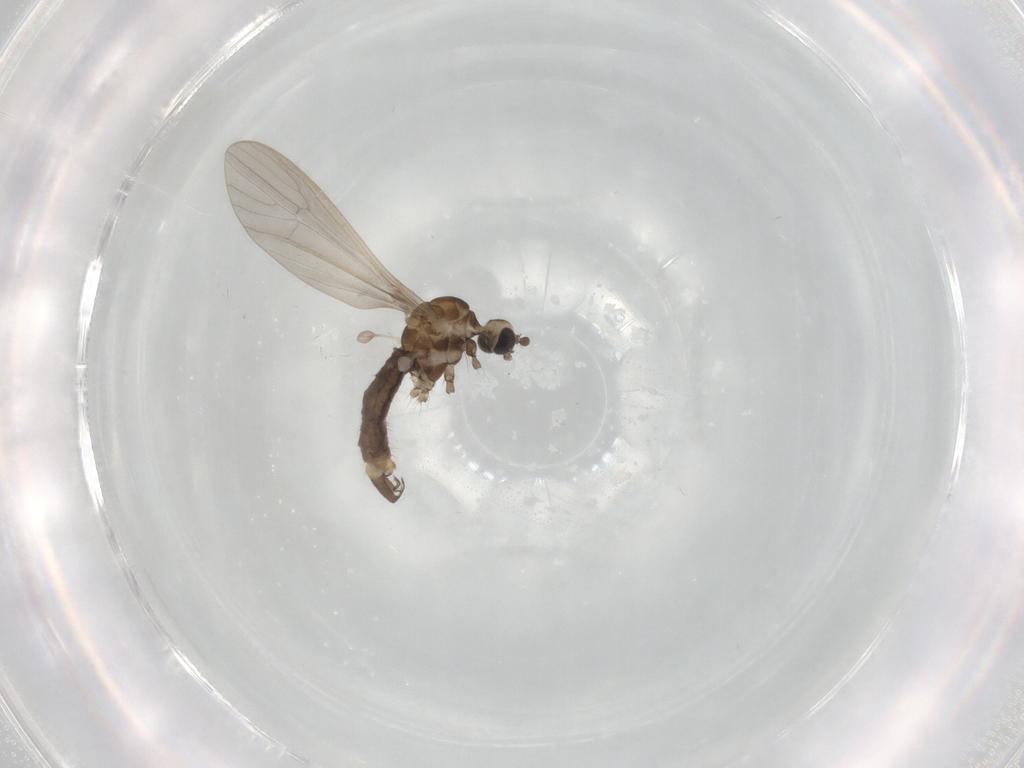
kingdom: Animalia
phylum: Arthropoda
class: Insecta
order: Diptera
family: Limoniidae
